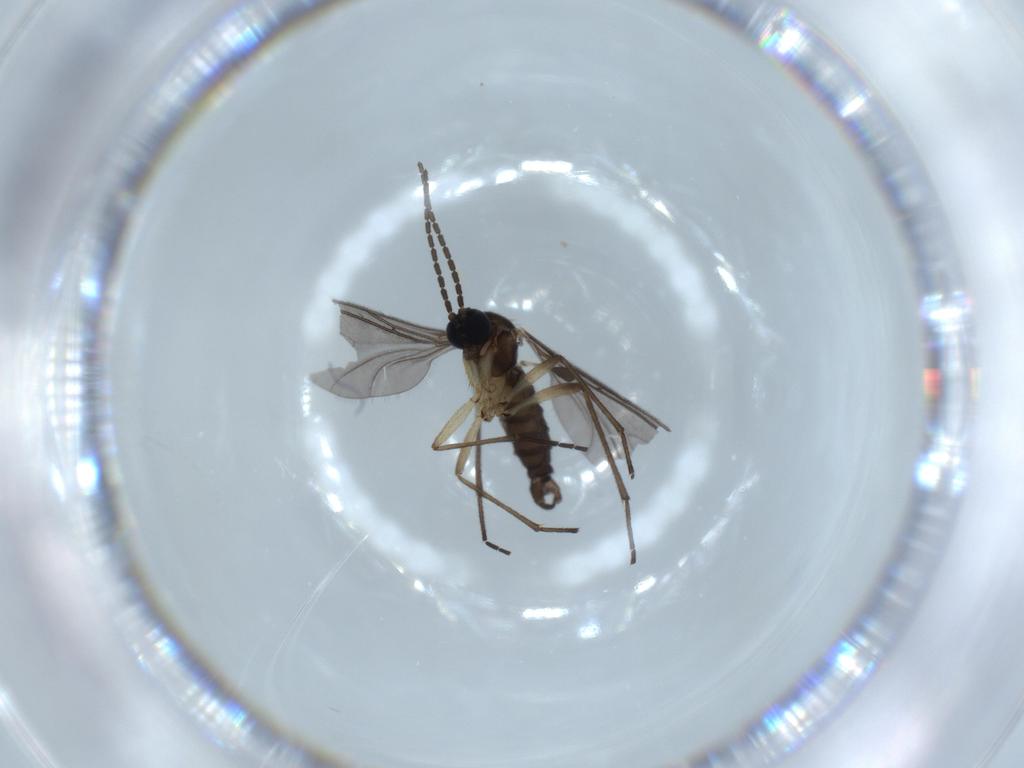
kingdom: Animalia
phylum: Arthropoda
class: Insecta
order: Diptera
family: Sciaridae
